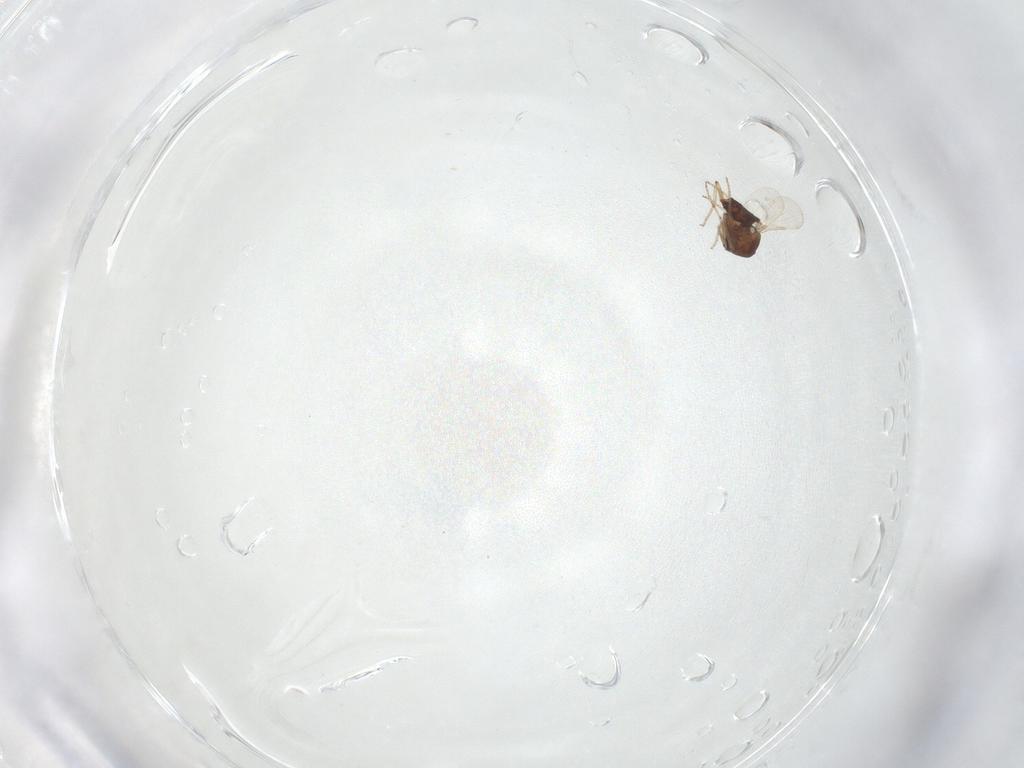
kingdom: Animalia
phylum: Arthropoda
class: Insecta
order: Diptera
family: Ceratopogonidae
